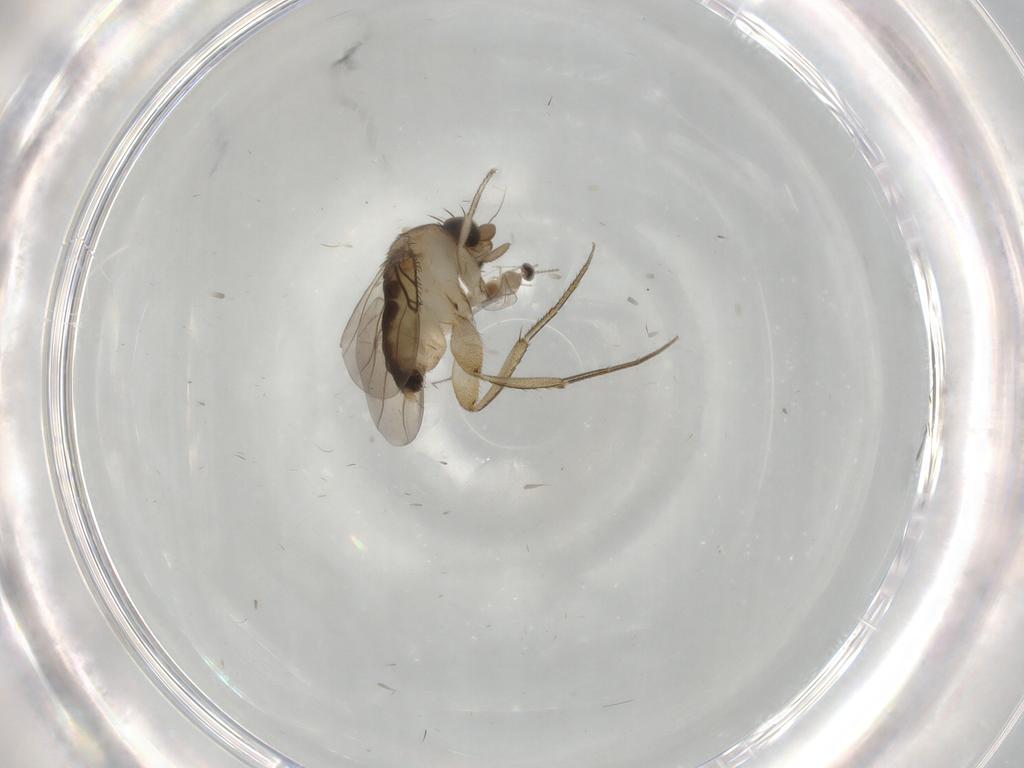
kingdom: Animalia
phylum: Arthropoda
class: Insecta
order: Diptera
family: Phoridae
